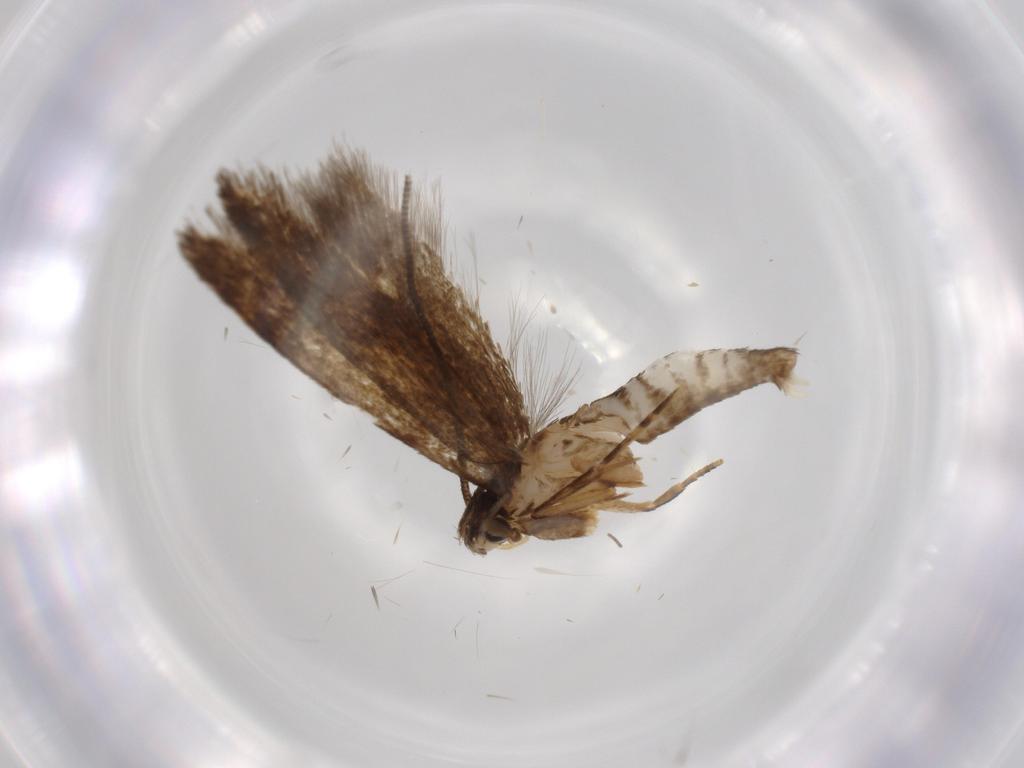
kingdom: Animalia
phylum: Arthropoda
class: Insecta
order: Lepidoptera
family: Tineidae
